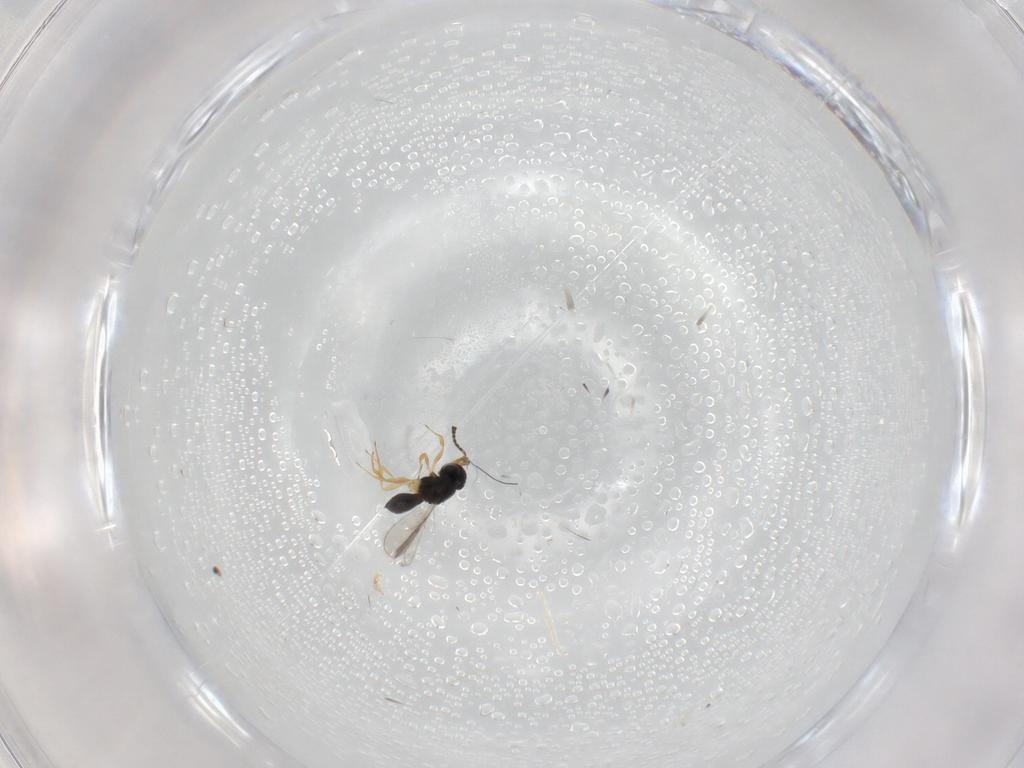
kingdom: Animalia
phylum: Arthropoda
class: Insecta
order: Hymenoptera
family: Scelionidae
